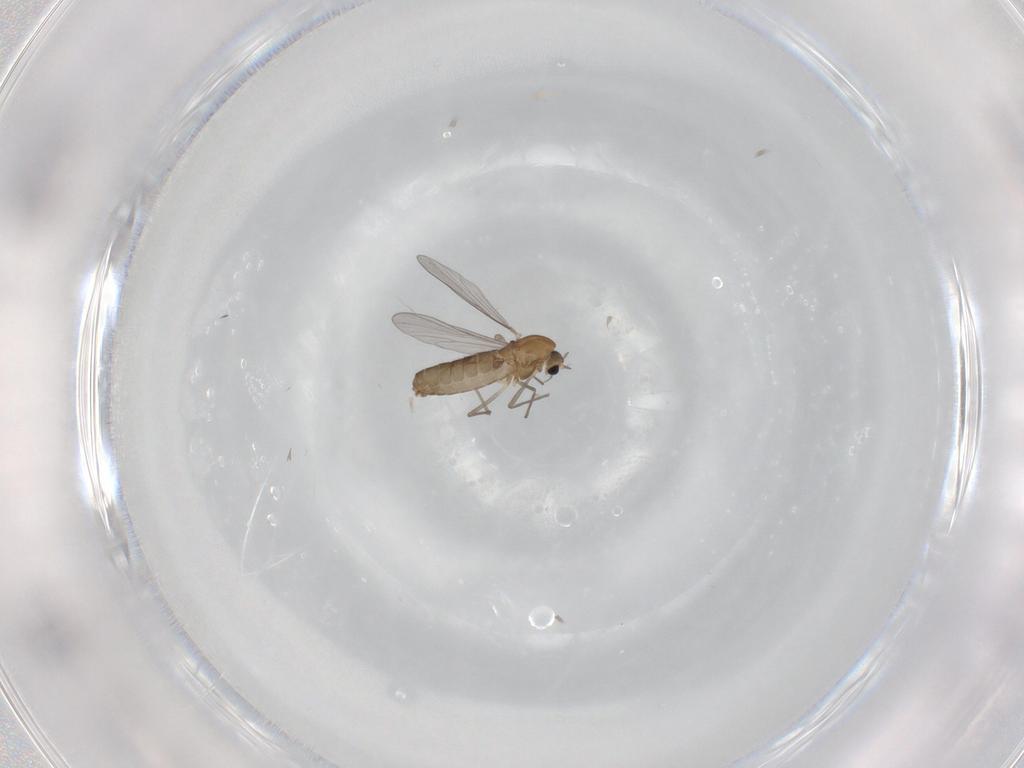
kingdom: Animalia
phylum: Arthropoda
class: Insecta
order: Diptera
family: Chironomidae
